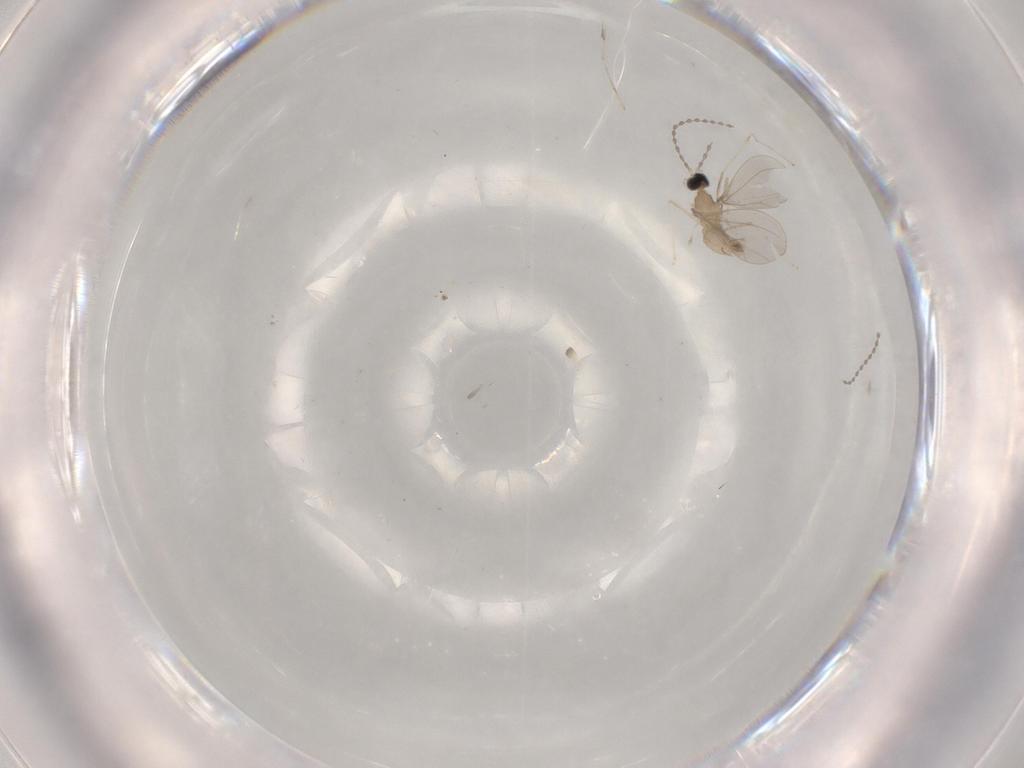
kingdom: Animalia
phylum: Arthropoda
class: Insecta
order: Diptera
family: Cecidomyiidae
